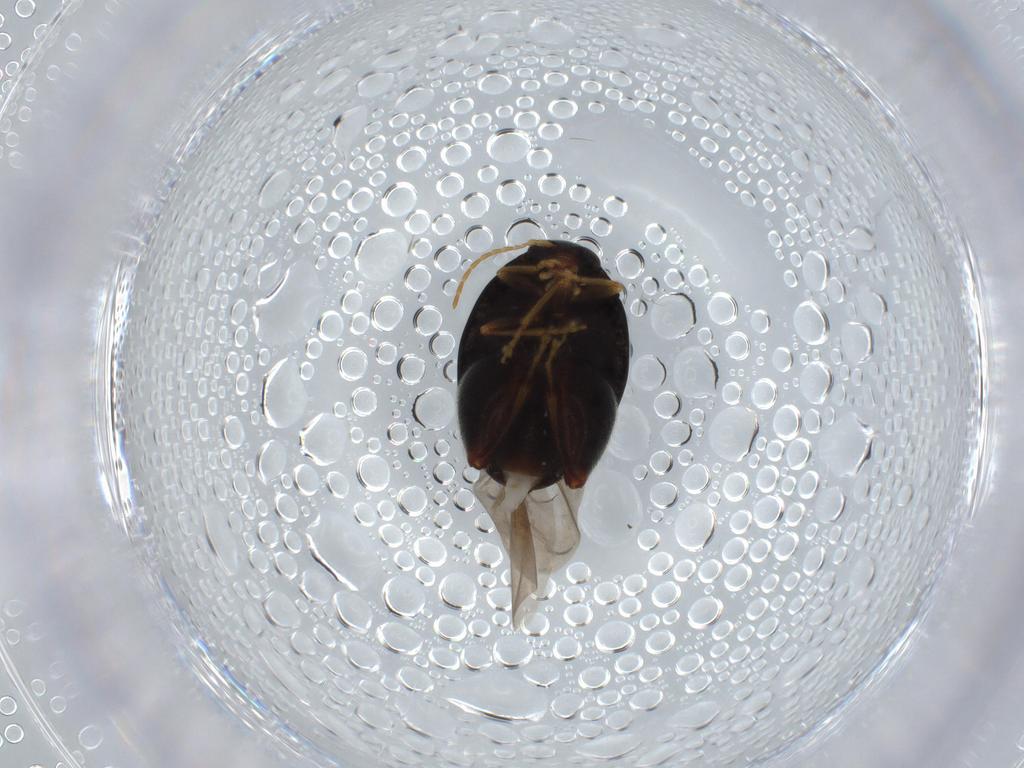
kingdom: Animalia
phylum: Arthropoda
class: Insecta
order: Coleoptera
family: Chrysomelidae
